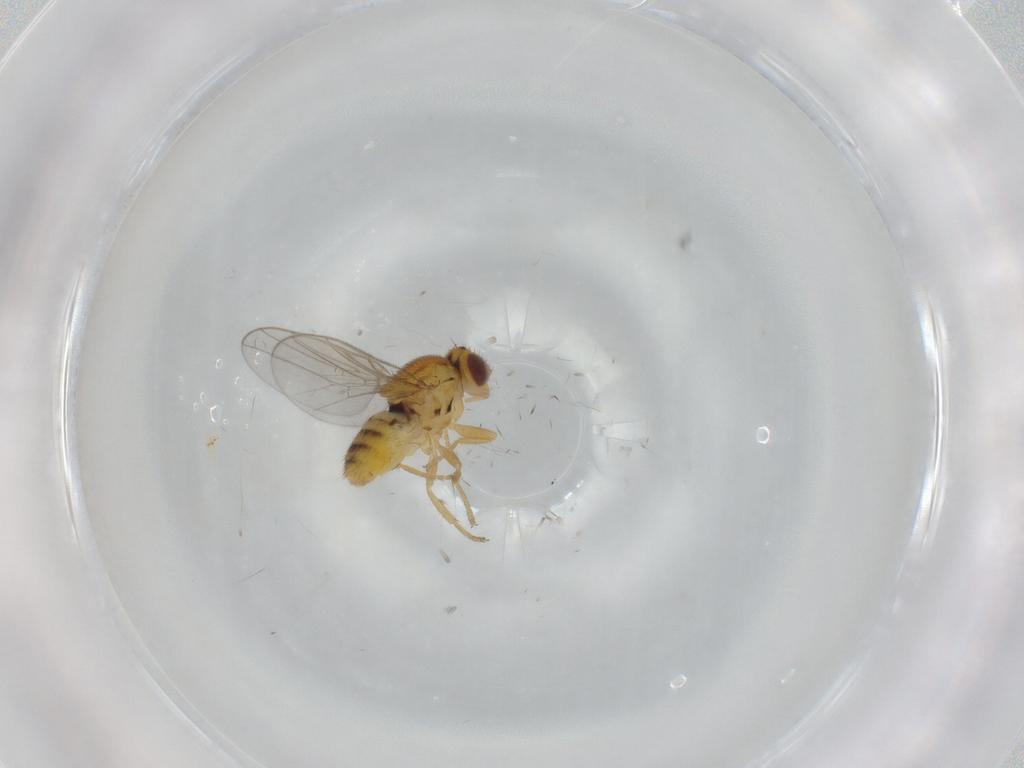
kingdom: Animalia
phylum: Arthropoda
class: Insecta
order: Diptera
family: Chloropidae
